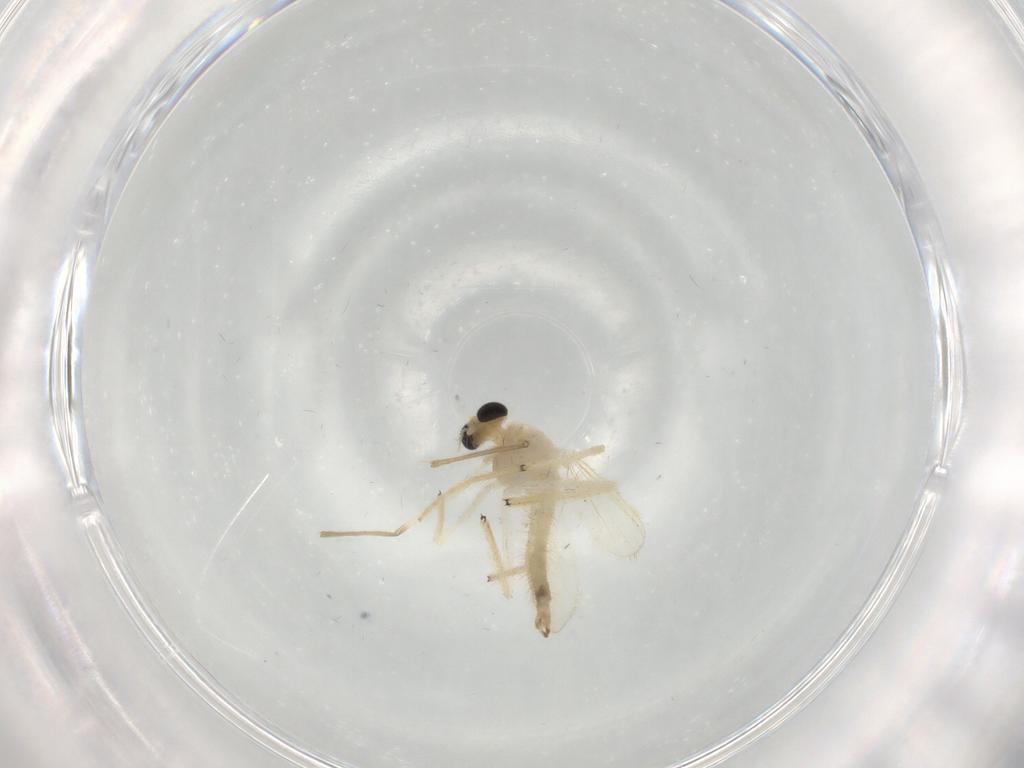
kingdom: Animalia
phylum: Arthropoda
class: Insecta
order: Diptera
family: Chironomidae
